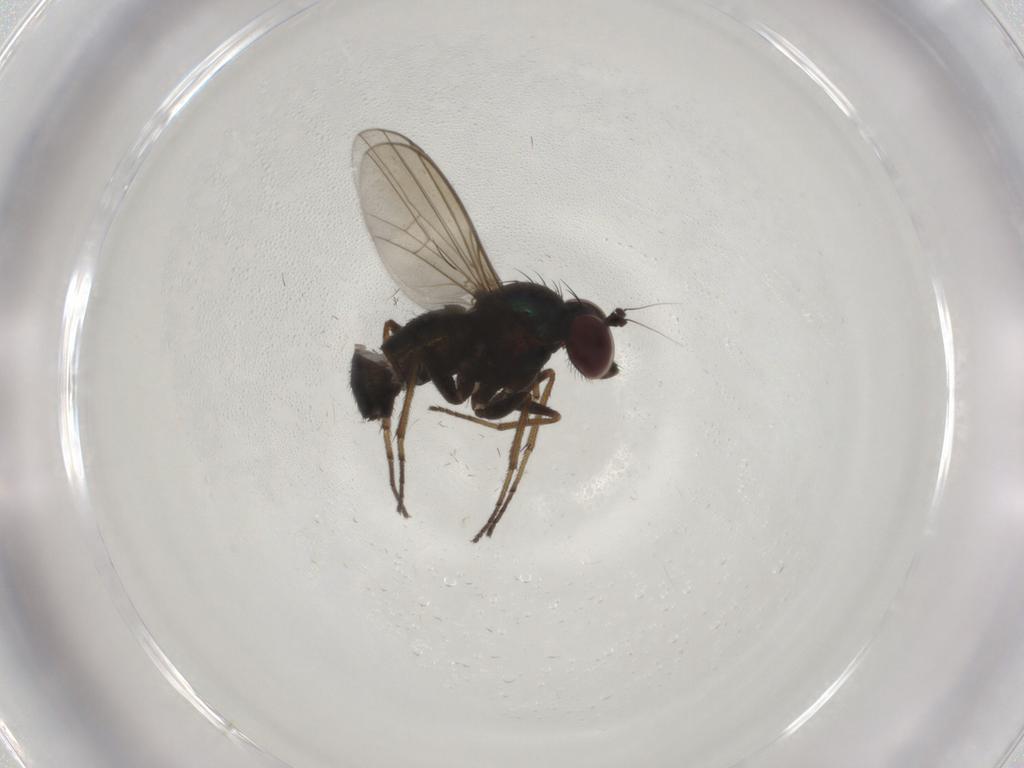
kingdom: Animalia
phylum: Arthropoda
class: Insecta
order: Diptera
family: Dolichopodidae
